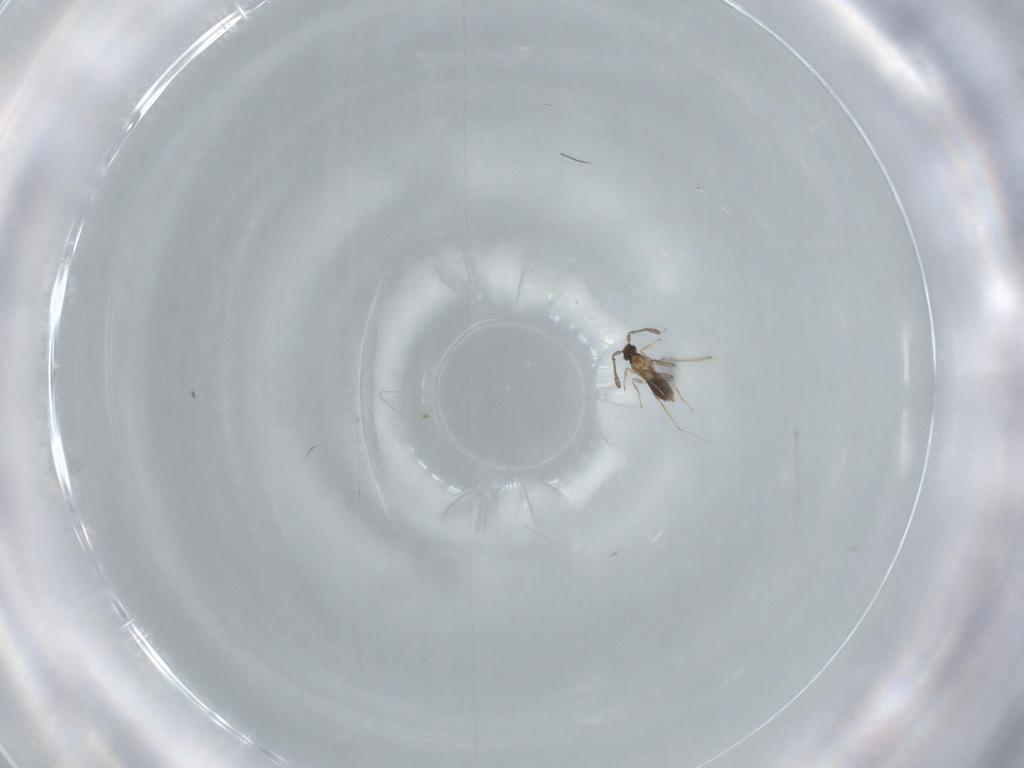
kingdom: Animalia
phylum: Arthropoda
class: Insecta
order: Hymenoptera
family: Mymaridae
